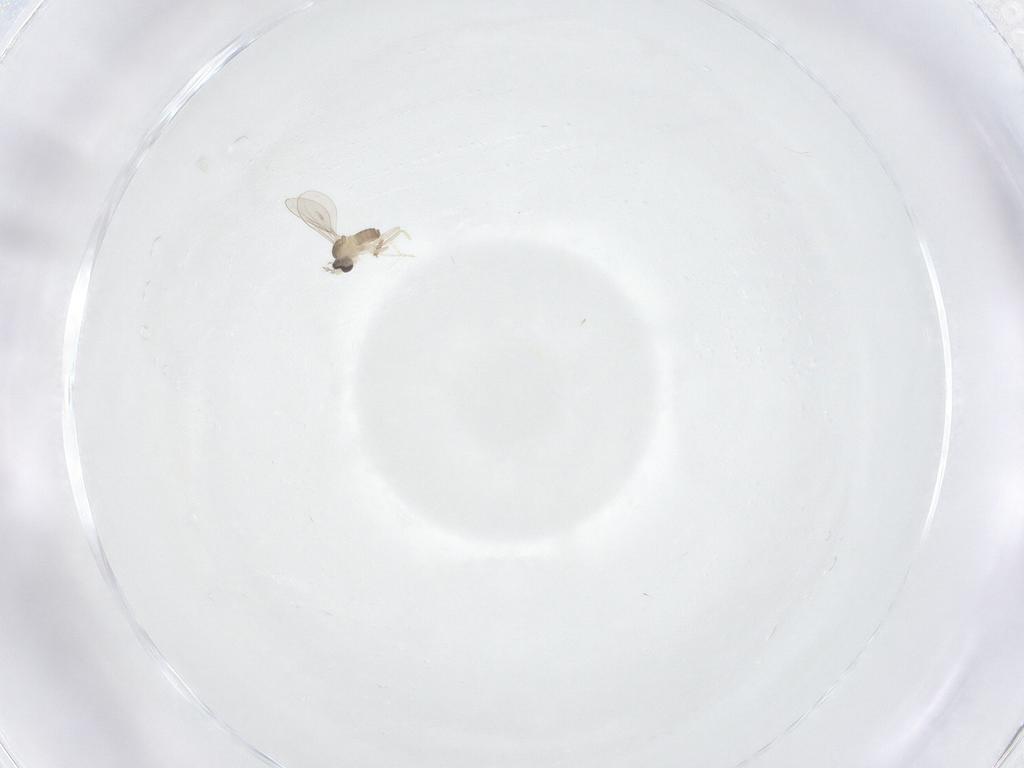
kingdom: Animalia
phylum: Arthropoda
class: Insecta
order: Diptera
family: Cecidomyiidae
